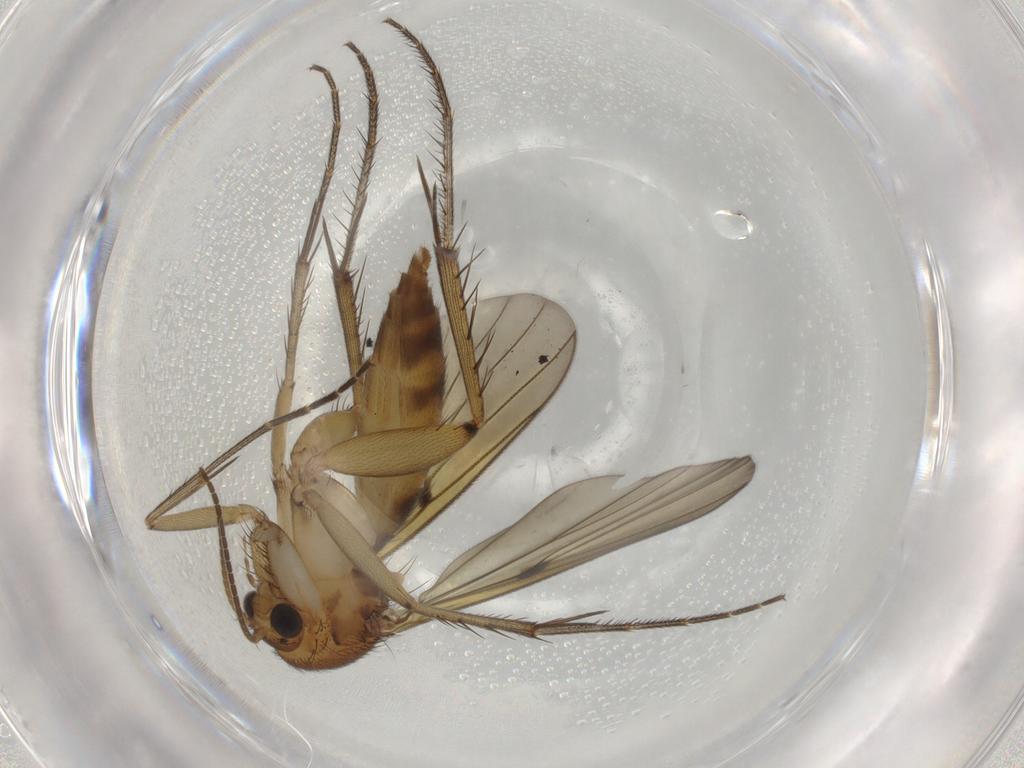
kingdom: Animalia
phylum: Arthropoda
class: Insecta
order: Diptera
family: Mycetophilidae
